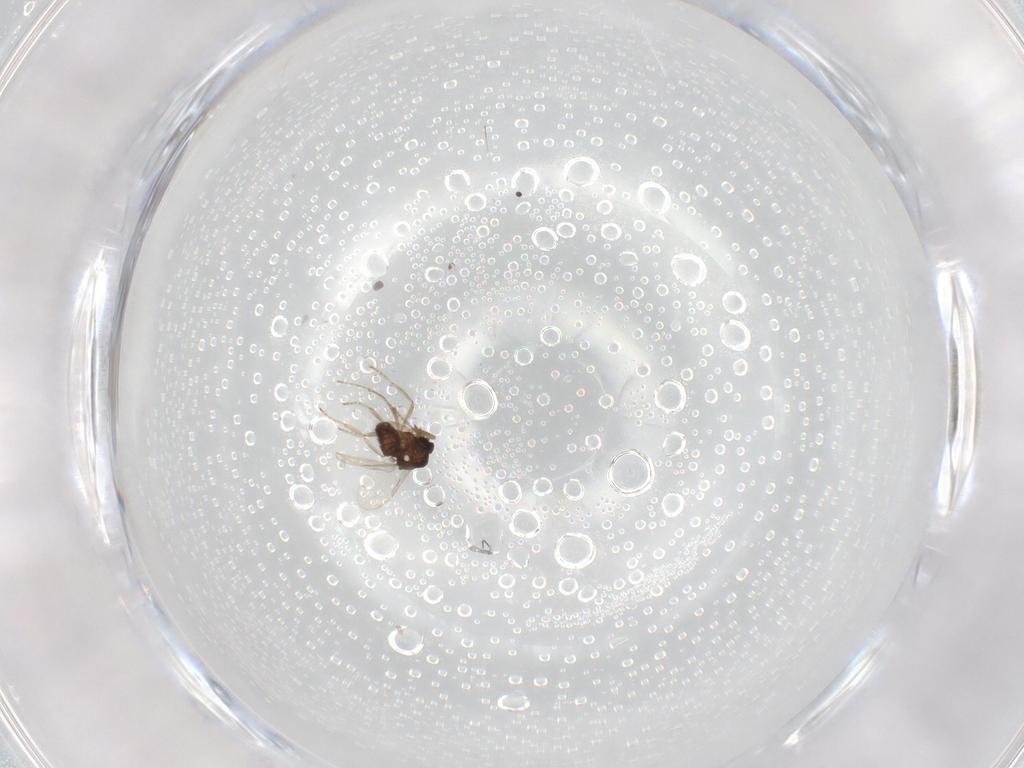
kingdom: Animalia
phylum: Arthropoda
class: Insecta
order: Diptera
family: Ceratopogonidae
